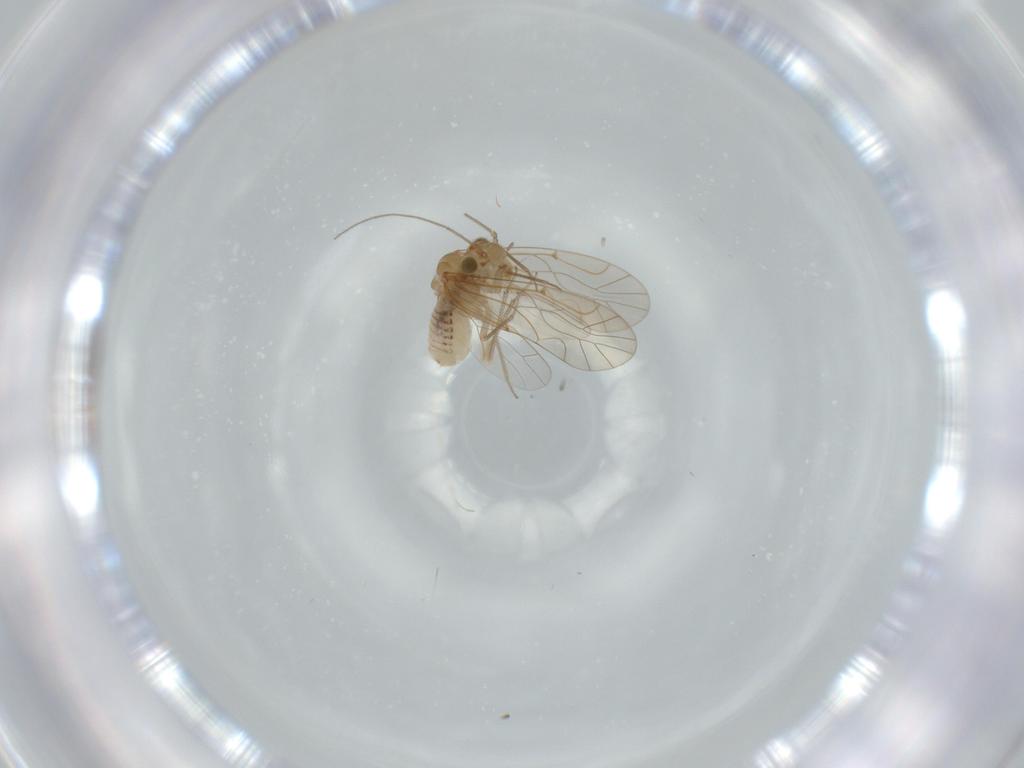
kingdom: Animalia
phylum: Arthropoda
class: Insecta
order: Psocodea
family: Lachesillidae
